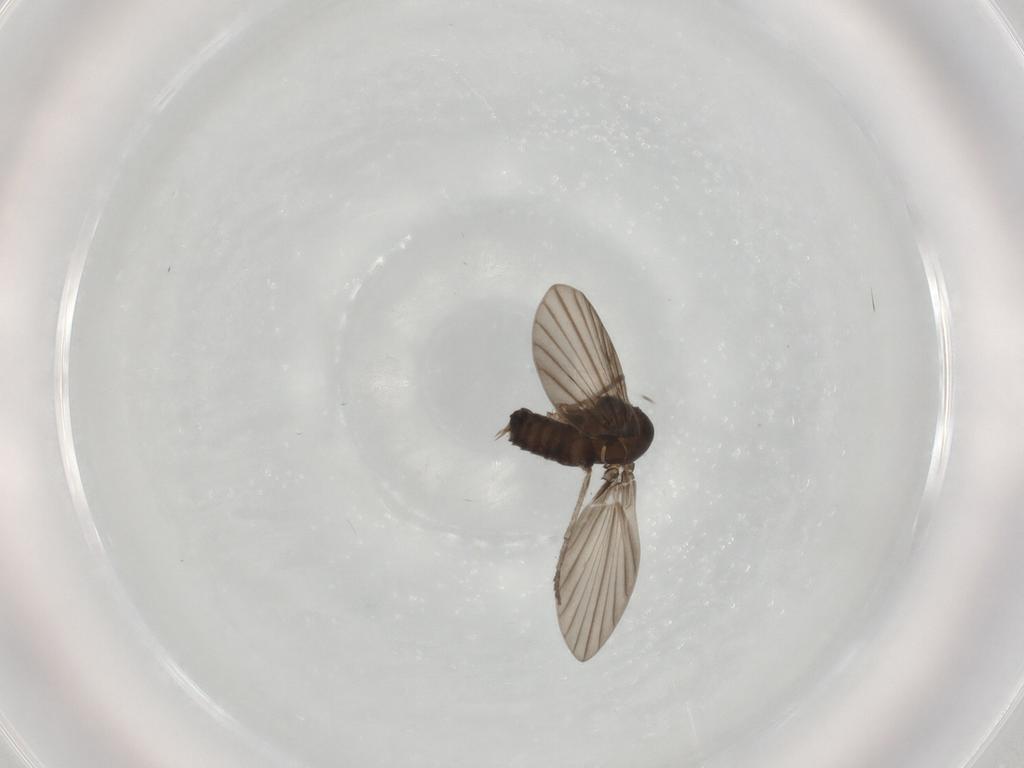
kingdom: Animalia
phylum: Arthropoda
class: Insecta
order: Diptera
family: Psychodidae
